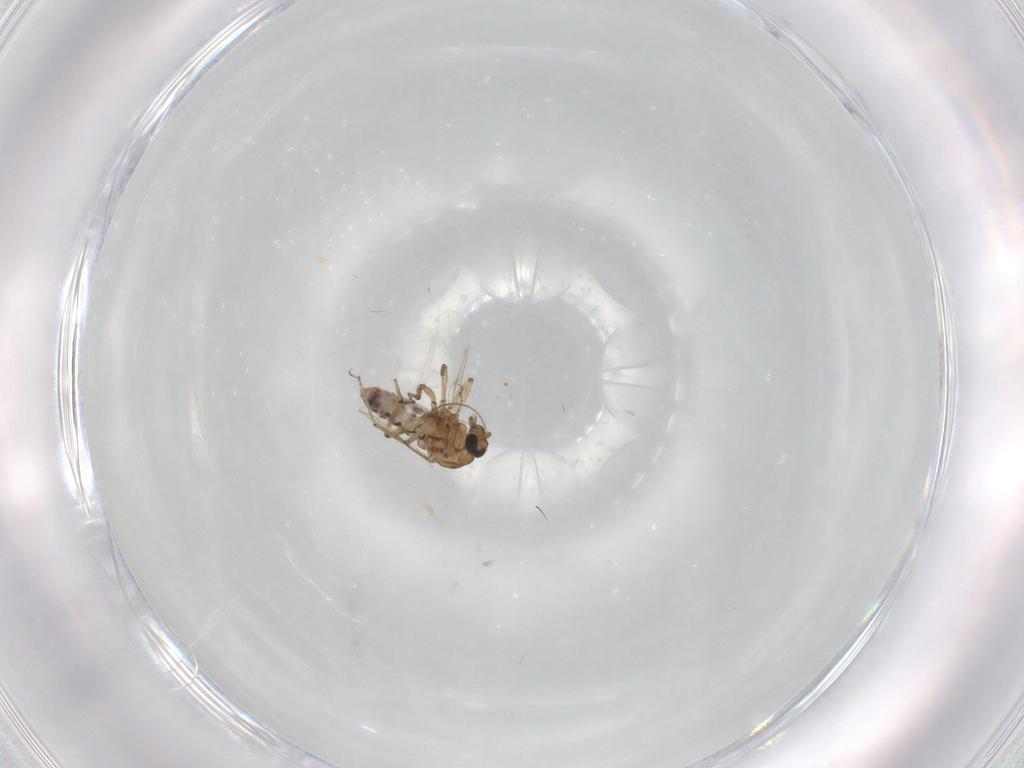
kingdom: Animalia
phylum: Arthropoda
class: Insecta
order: Diptera
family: Ceratopogonidae
